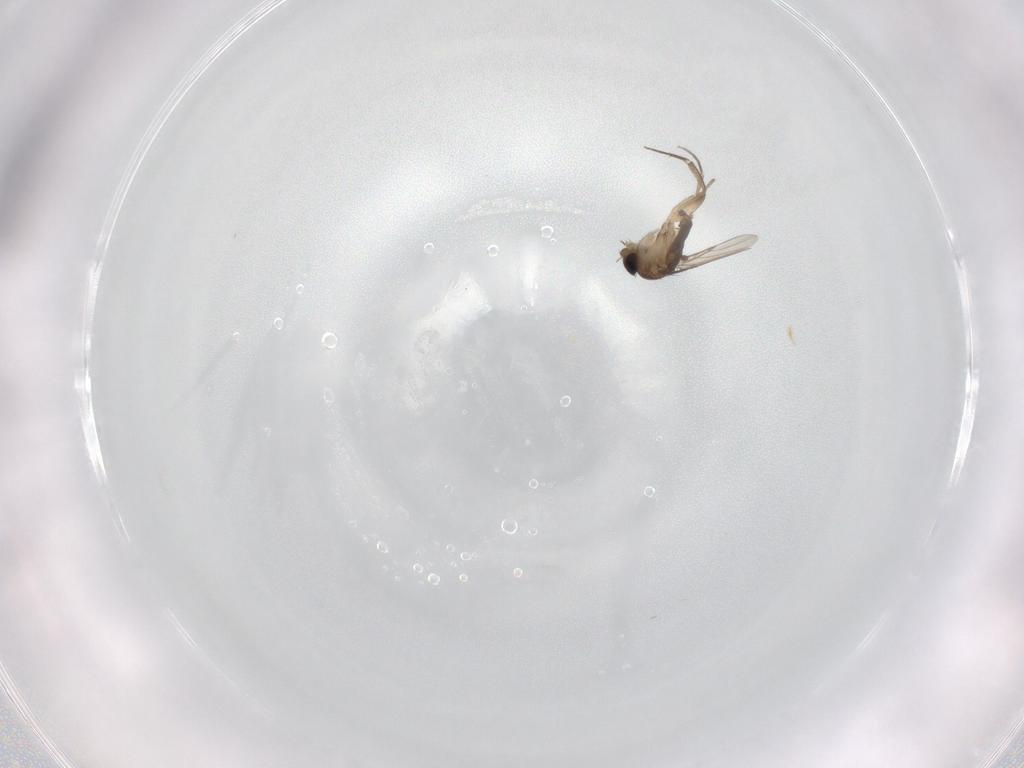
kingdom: Animalia
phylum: Arthropoda
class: Insecta
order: Diptera
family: Phoridae
